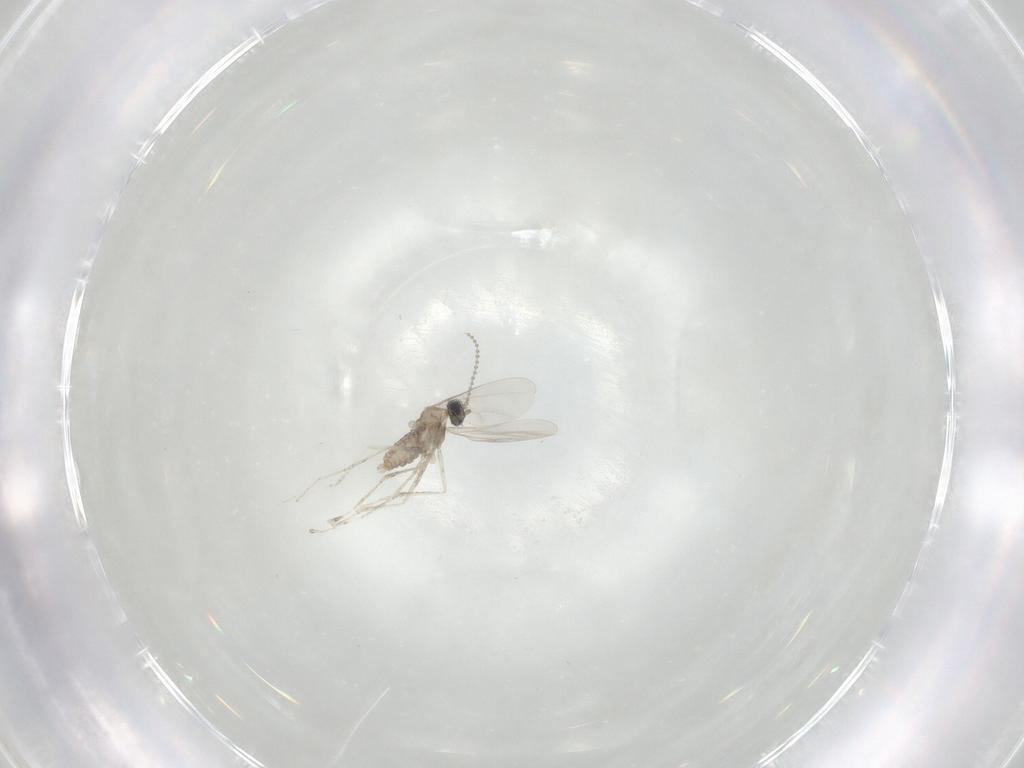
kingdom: Animalia
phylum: Arthropoda
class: Insecta
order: Diptera
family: Cecidomyiidae
